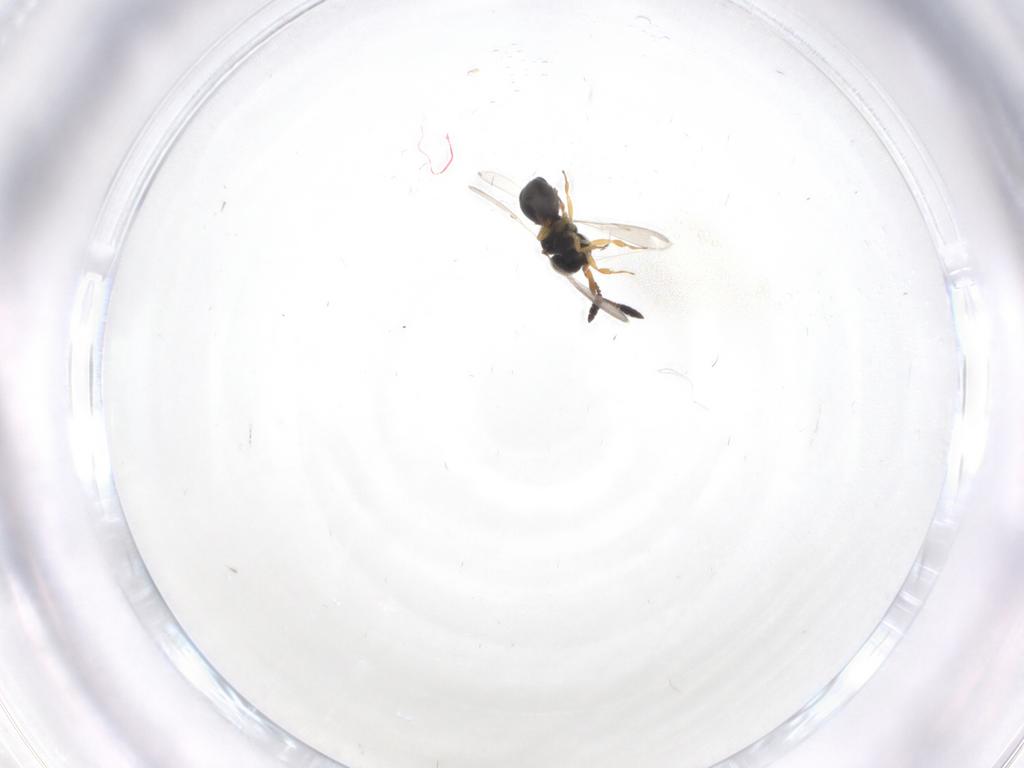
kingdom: Animalia
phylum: Arthropoda
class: Insecta
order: Hymenoptera
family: Scelionidae
